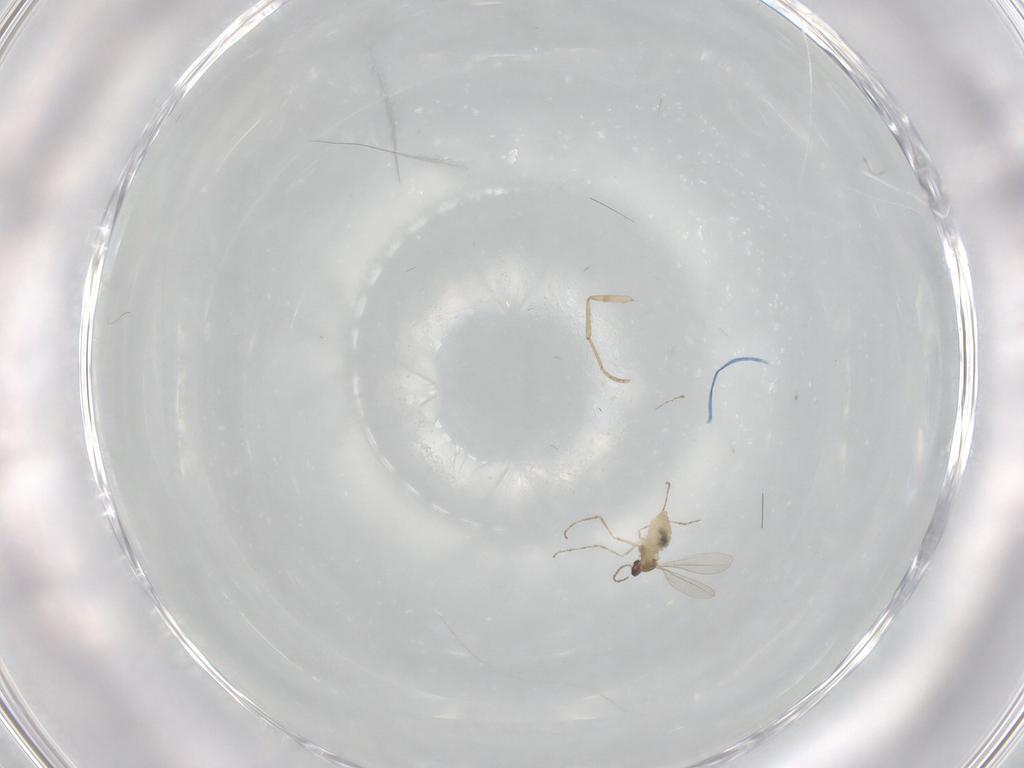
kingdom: Animalia
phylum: Arthropoda
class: Insecta
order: Diptera
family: Cecidomyiidae
